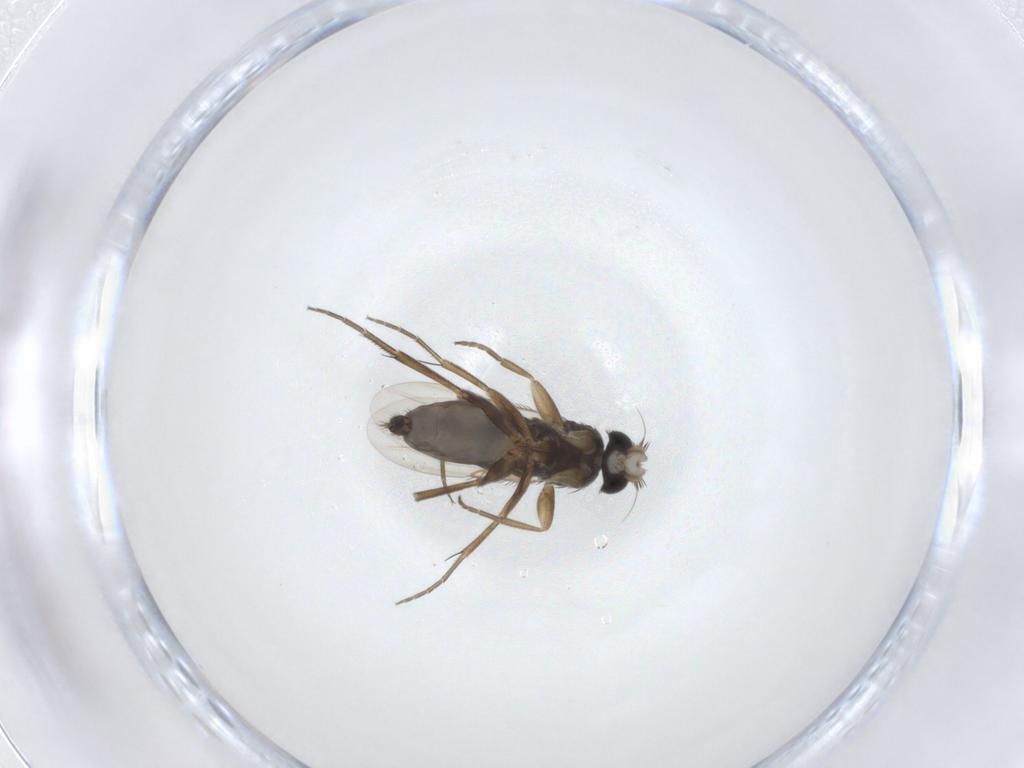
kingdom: Animalia
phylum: Arthropoda
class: Insecta
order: Diptera
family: Phoridae
